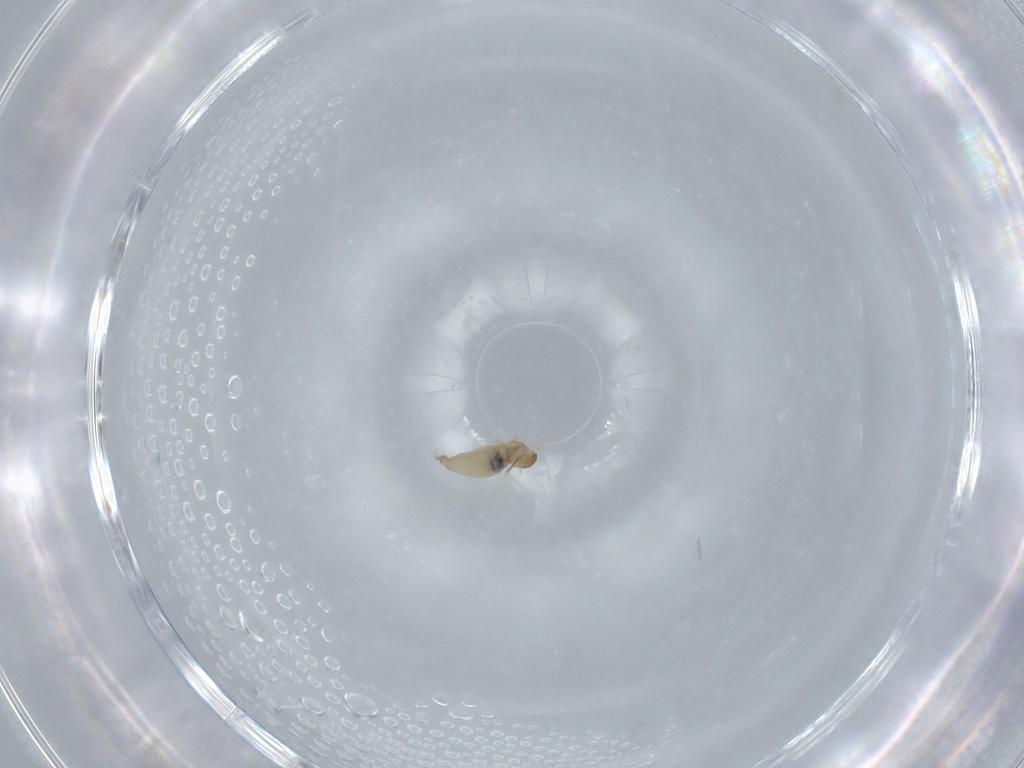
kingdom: Animalia
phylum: Arthropoda
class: Insecta
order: Diptera
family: Cecidomyiidae
